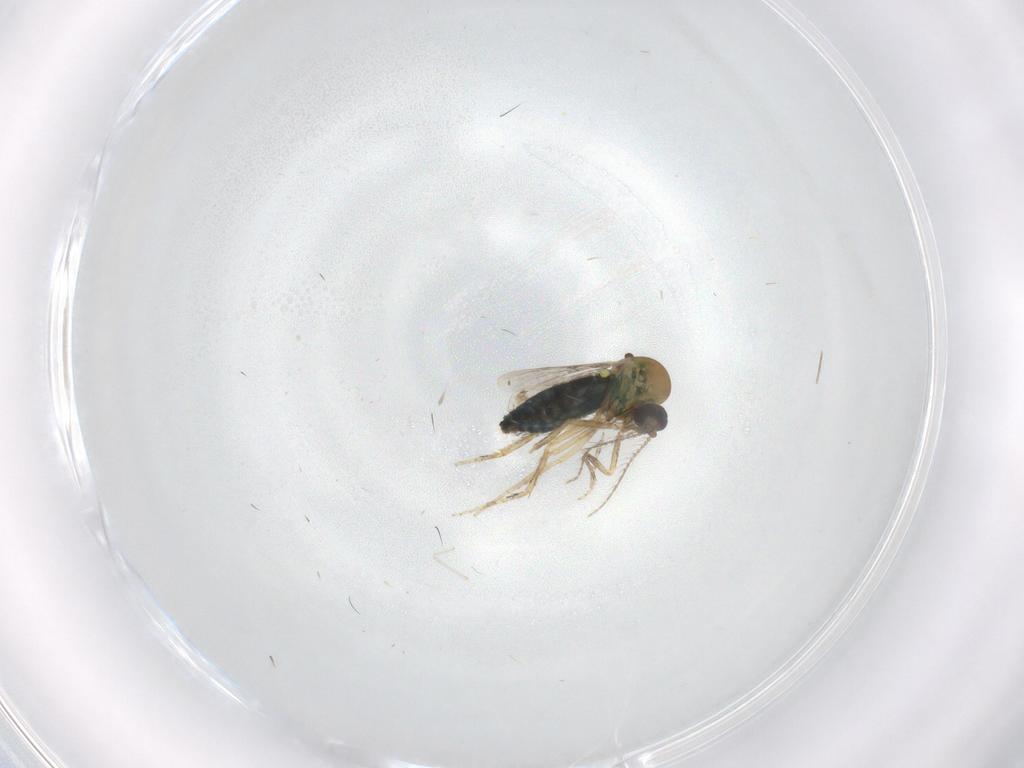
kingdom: Animalia
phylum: Arthropoda
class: Insecta
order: Diptera
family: Ceratopogonidae
